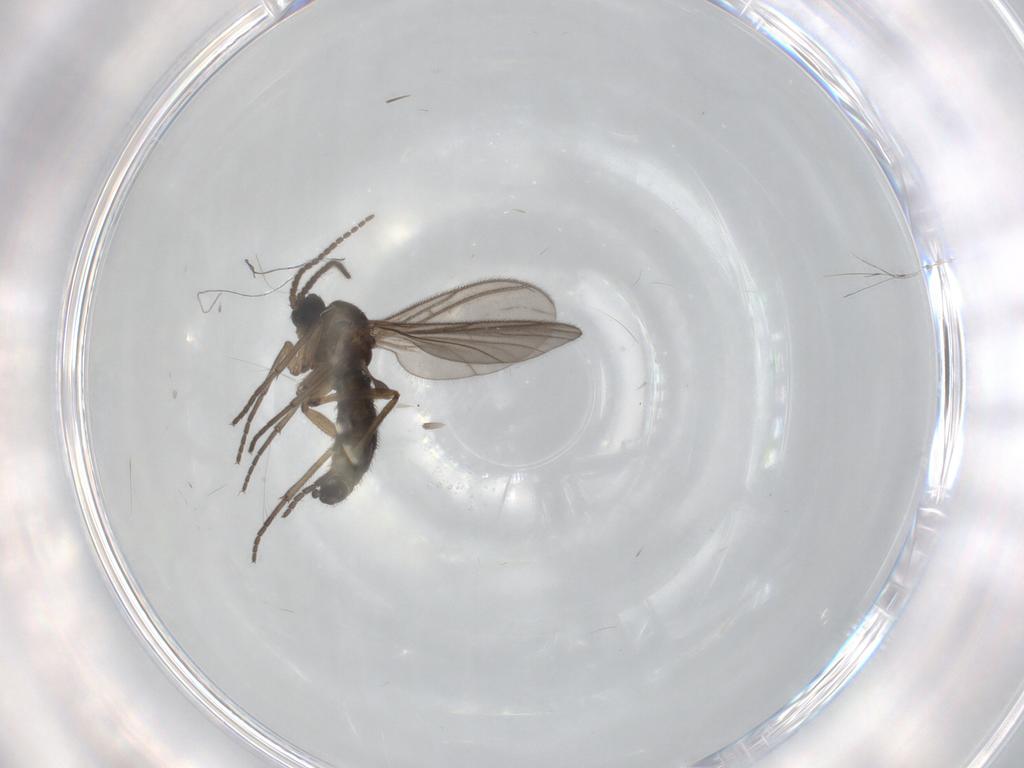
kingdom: Animalia
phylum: Arthropoda
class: Insecta
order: Diptera
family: Sciaridae
